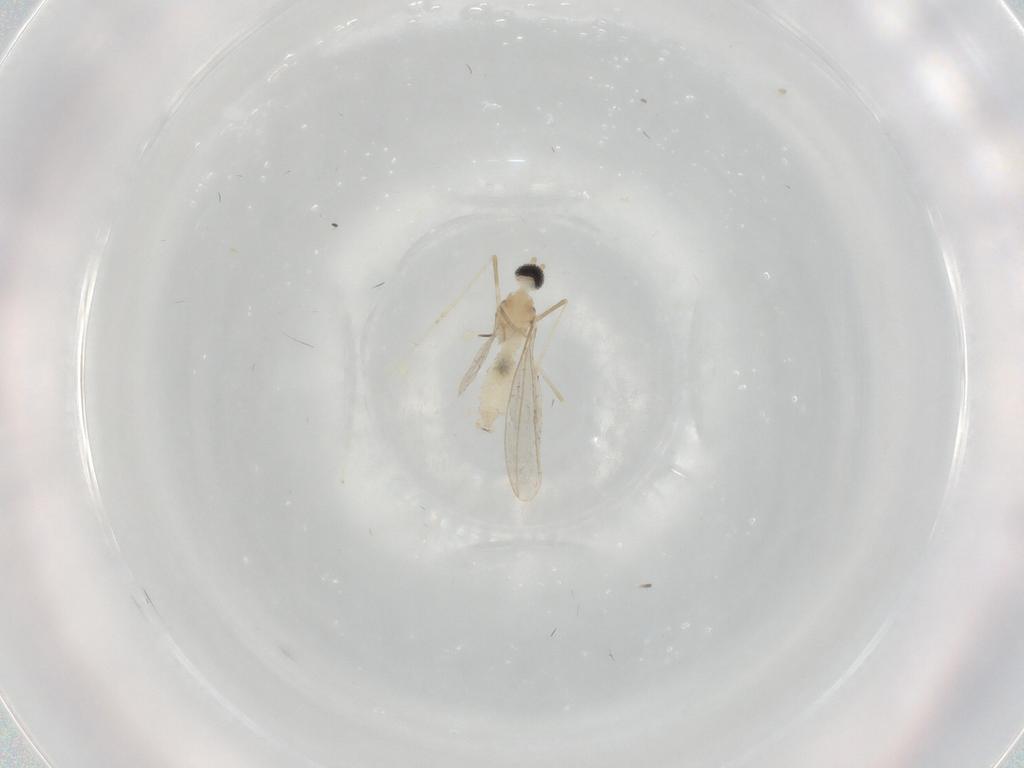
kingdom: Animalia
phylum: Arthropoda
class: Insecta
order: Diptera
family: Cecidomyiidae
